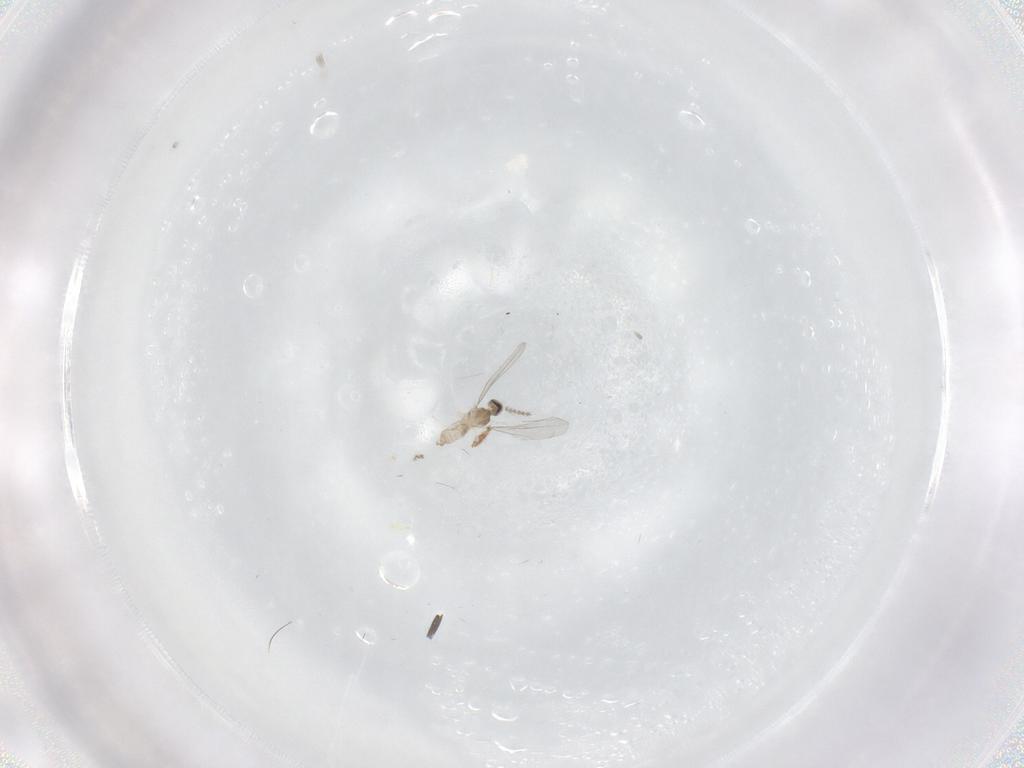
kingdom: Animalia
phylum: Arthropoda
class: Insecta
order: Diptera
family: Cecidomyiidae
